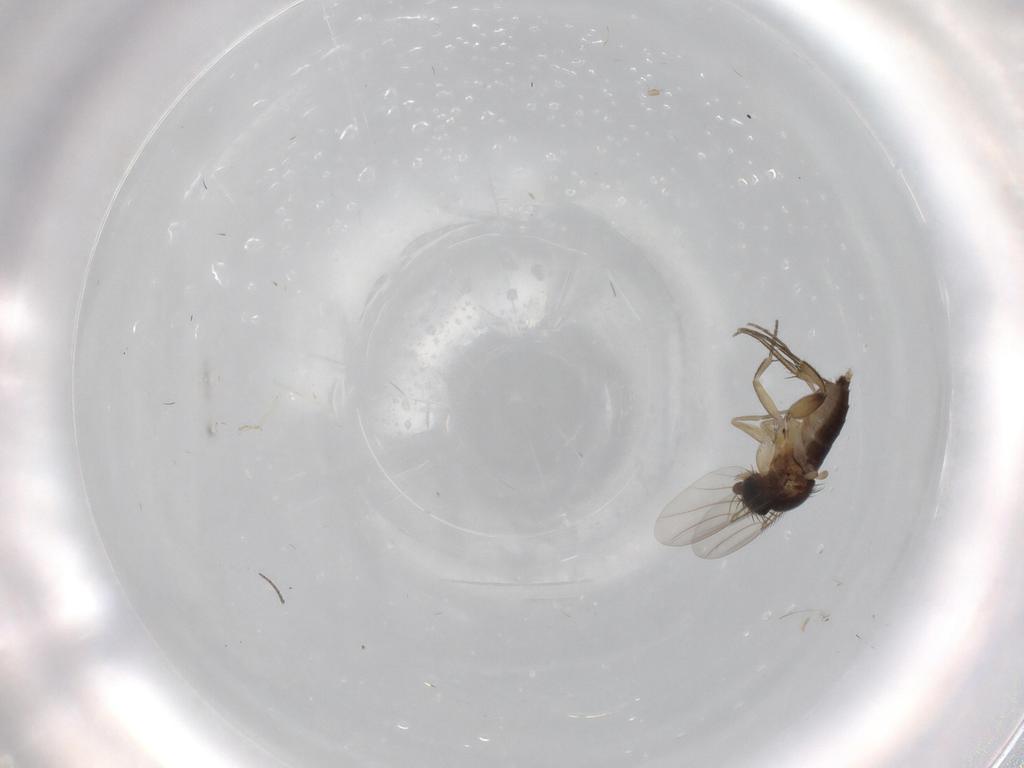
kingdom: Animalia
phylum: Arthropoda
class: Insecta
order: Diptera
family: Phoridae
